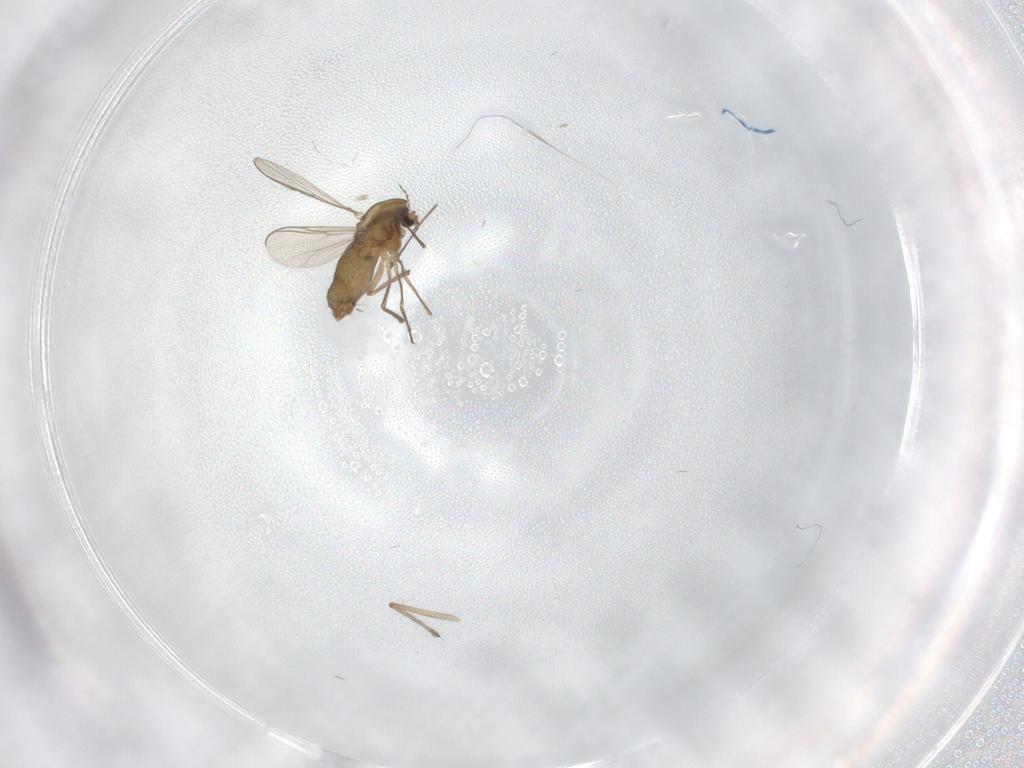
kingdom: Animalia
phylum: Arthropoda
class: Insecta
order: Diptera
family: Chironomidae
